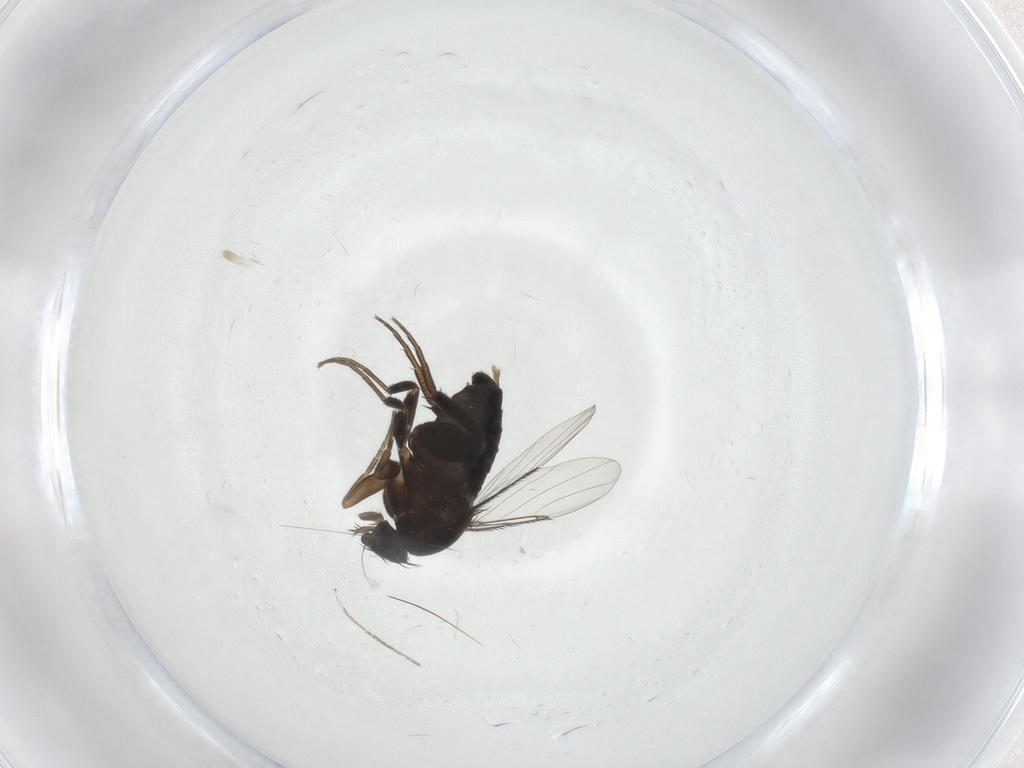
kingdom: Animalia
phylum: Arthropoda
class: Insecta
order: Diptera
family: Phoridae
